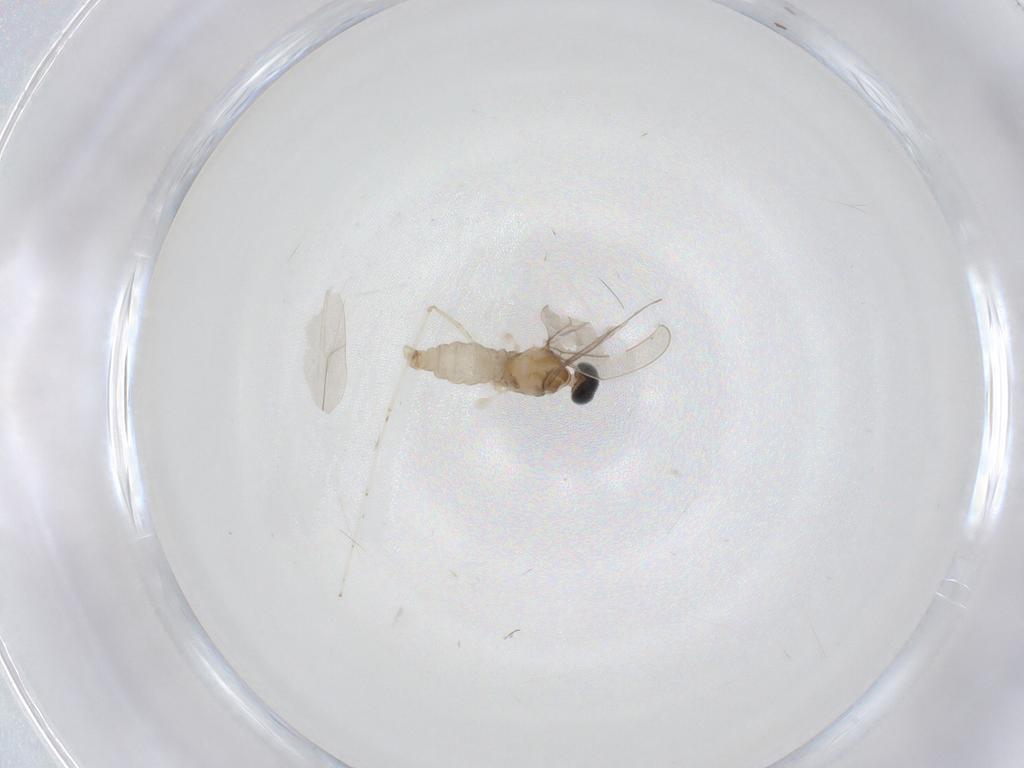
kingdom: Animalia
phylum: Arthropoda
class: Insecta
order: Diptera
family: Cecidomyiidae
